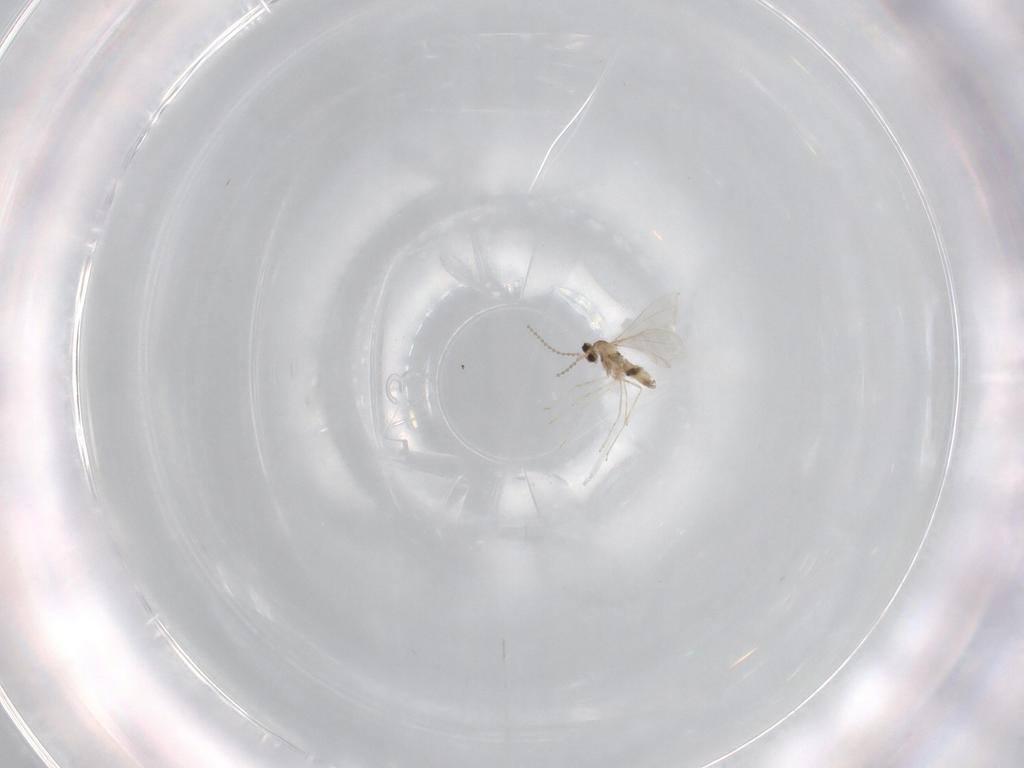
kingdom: Animalia
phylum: Arthropoda
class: Insecta
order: Diptera
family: Cecidomyiidae
